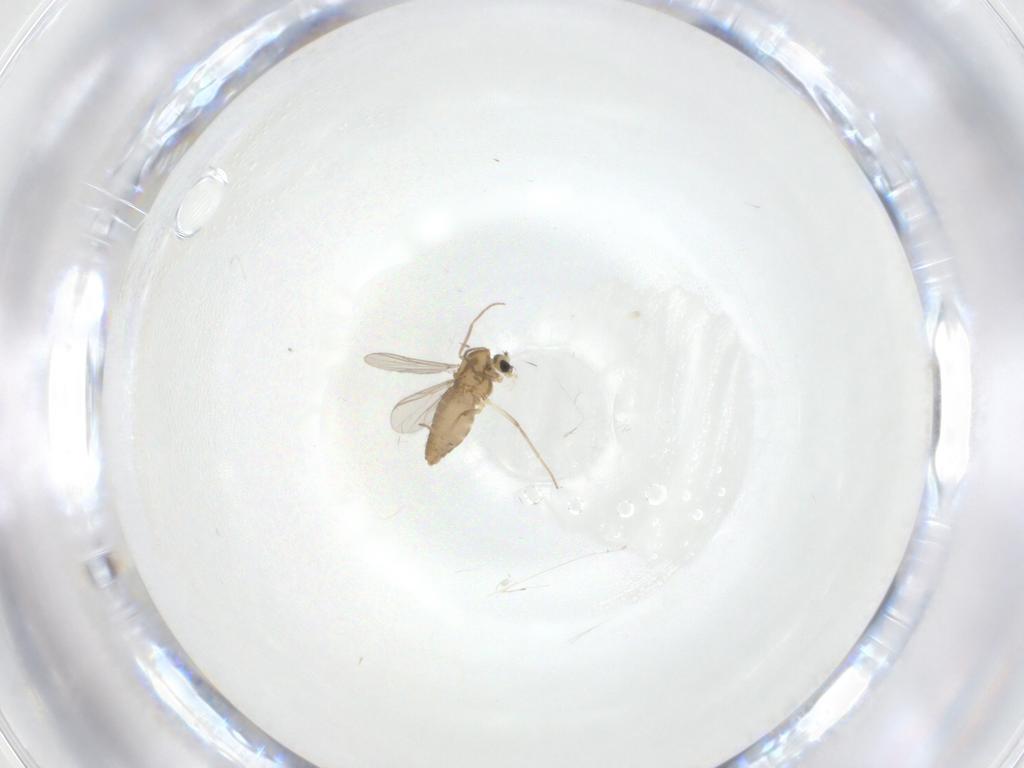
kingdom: Animalia
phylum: Arthropoda
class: Insecta
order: Diptera
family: Chironomidae
